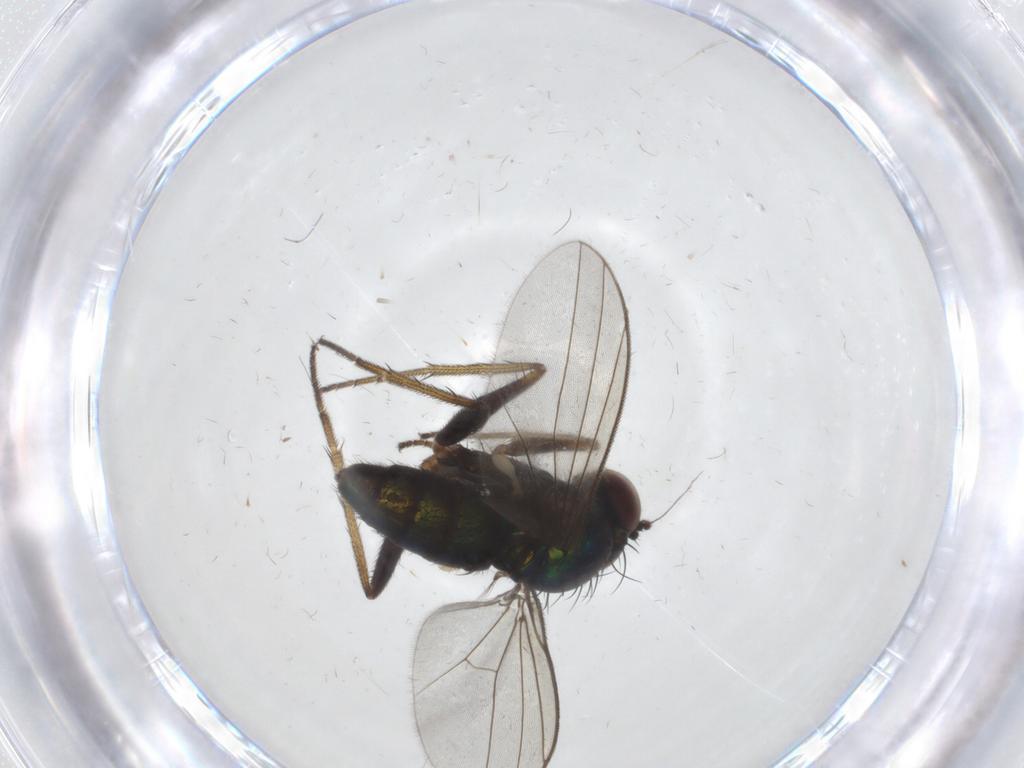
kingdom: Animalia
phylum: Arthropoda
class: Insecta
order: Diptera
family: Dolichopodidae
